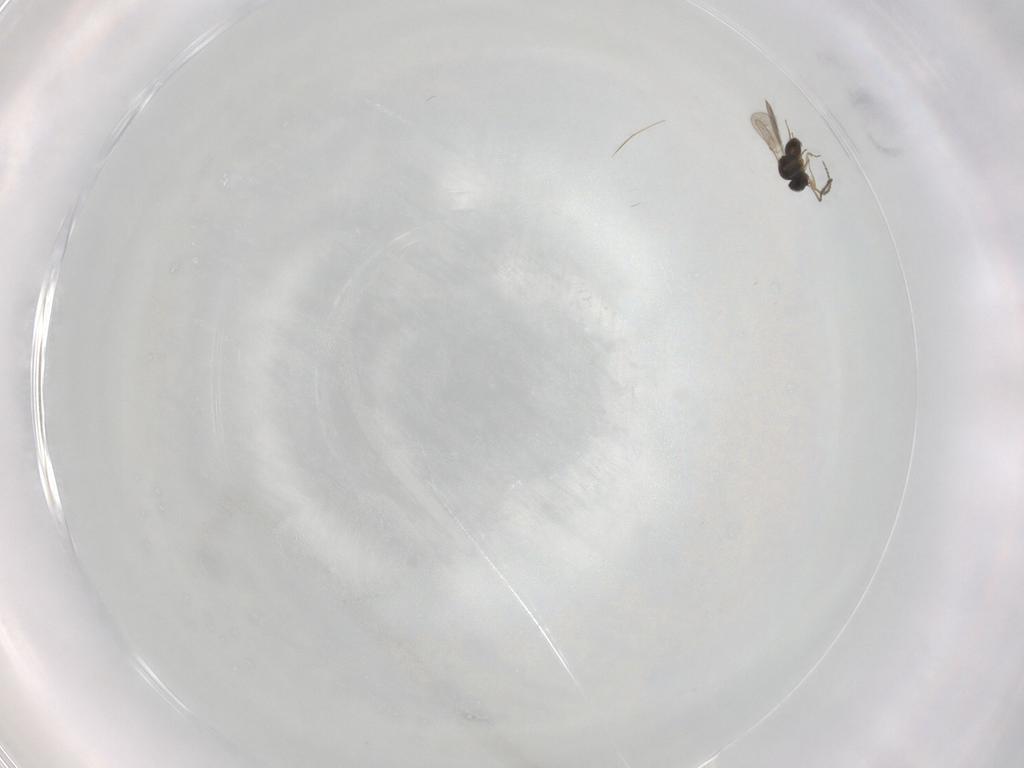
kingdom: Animalia
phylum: Arthropoda
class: Insecta
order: Hymenoptera
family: Scelionidae
